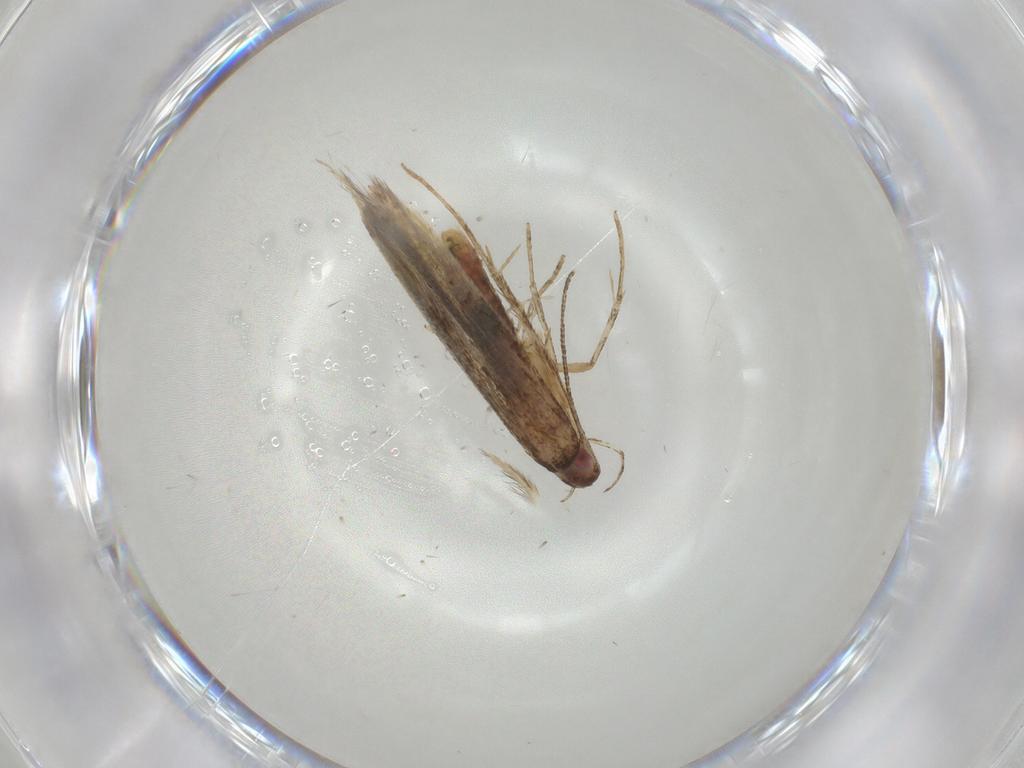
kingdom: Animalia
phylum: Arthropoda
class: Insecta
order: Lepidoptera
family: Cosmopterigidae
